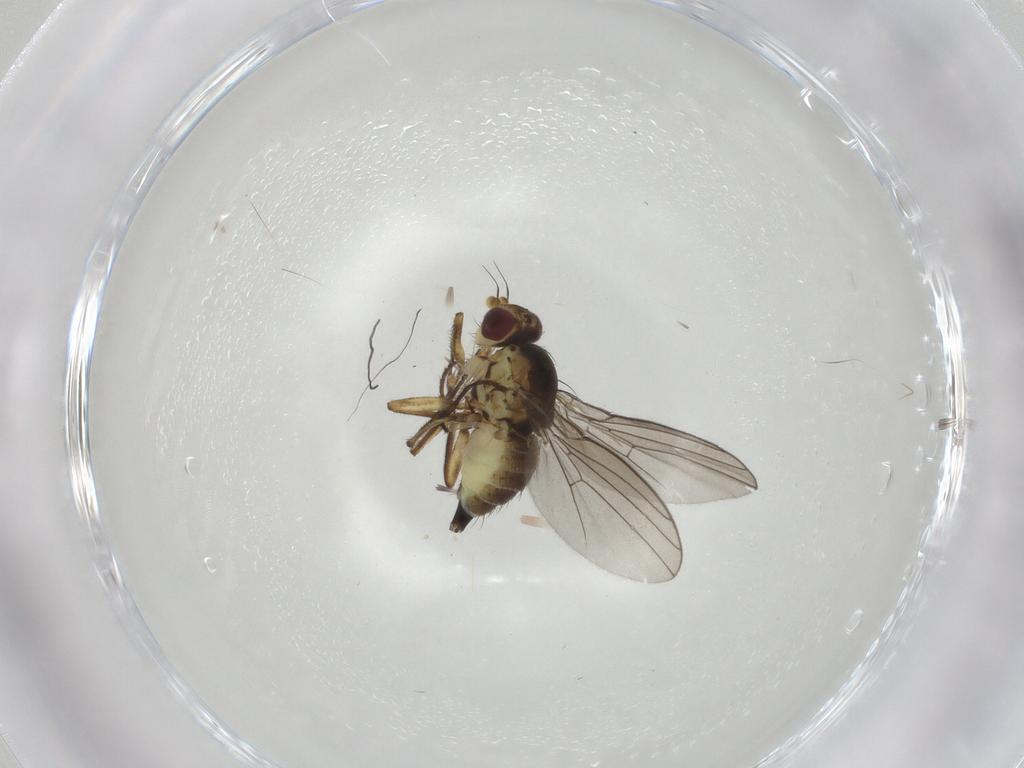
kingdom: Animalia
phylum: Arthropoda
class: Insecta
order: Diptera
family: Agromyzidae
